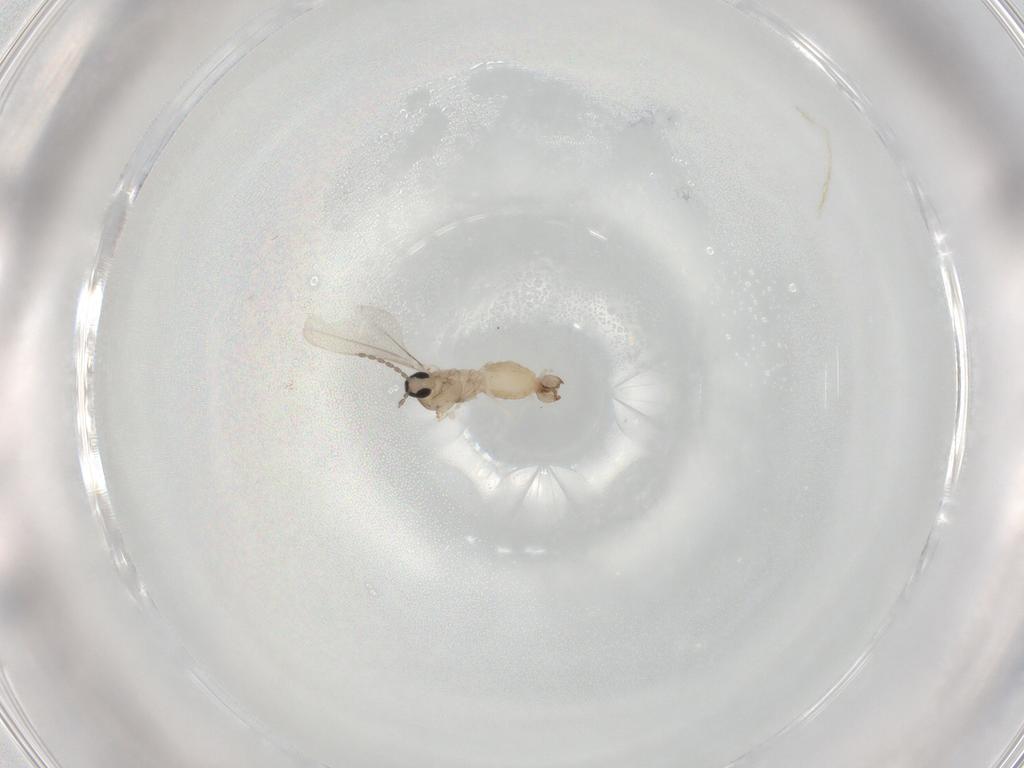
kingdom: Animalia
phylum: Arthropoda
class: Insecta
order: Diptera
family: Cecidomyiidae
